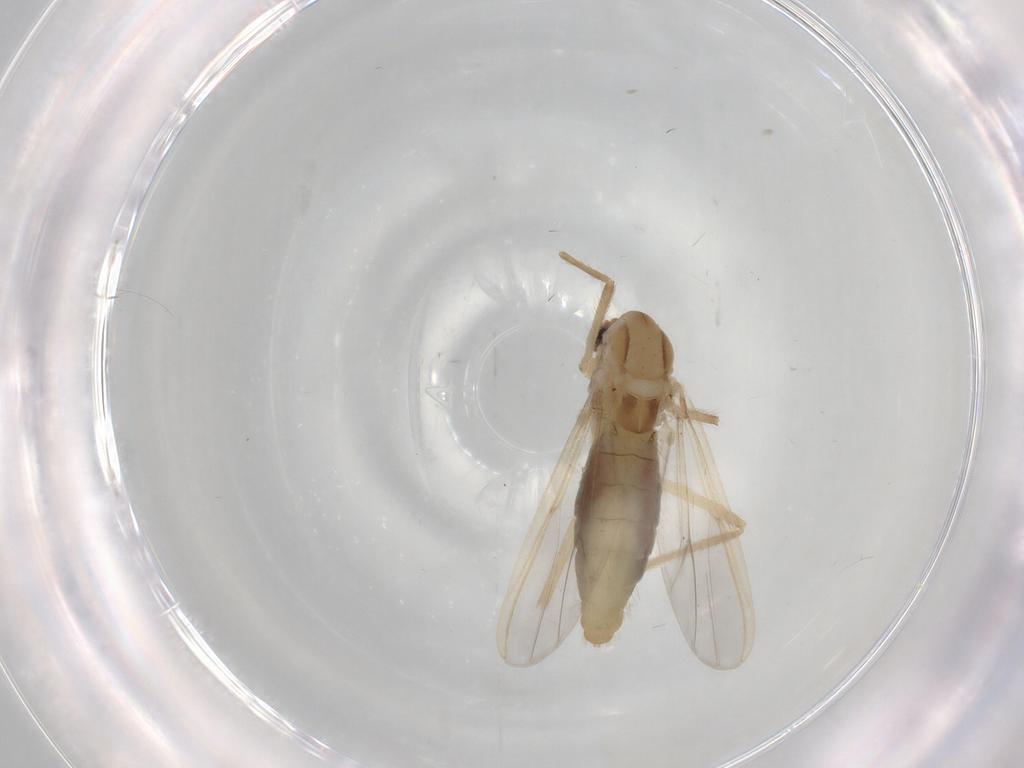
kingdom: Animalia
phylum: Arthropoda
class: Insecta
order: Diptera
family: Chironomidae
